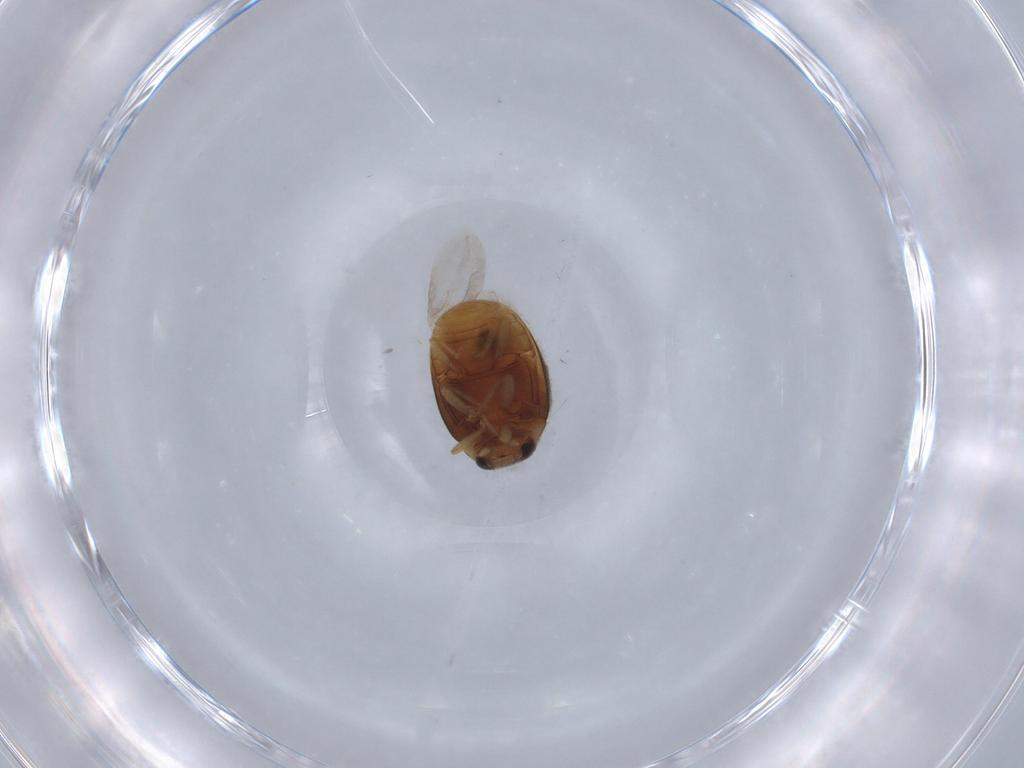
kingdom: Animalia
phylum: Arthropoda
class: Insecta
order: Coleoptera
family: Coccinellidae
